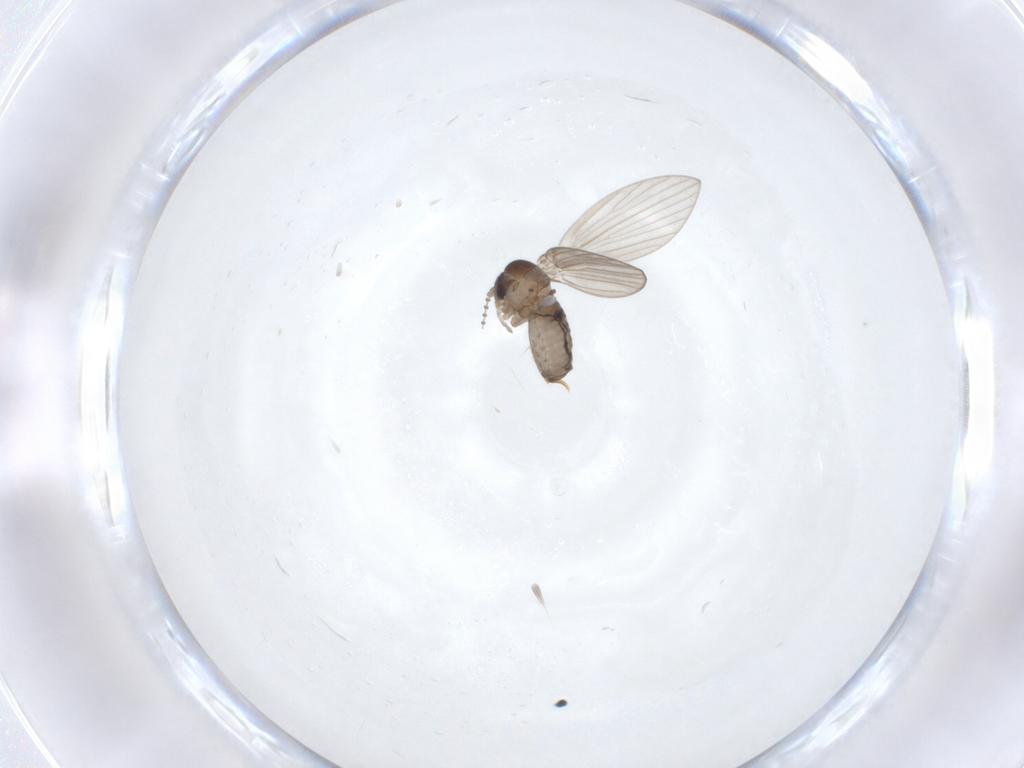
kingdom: Animalia
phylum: Arthropoda
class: Insecta
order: Diptera
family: Psychodidae
